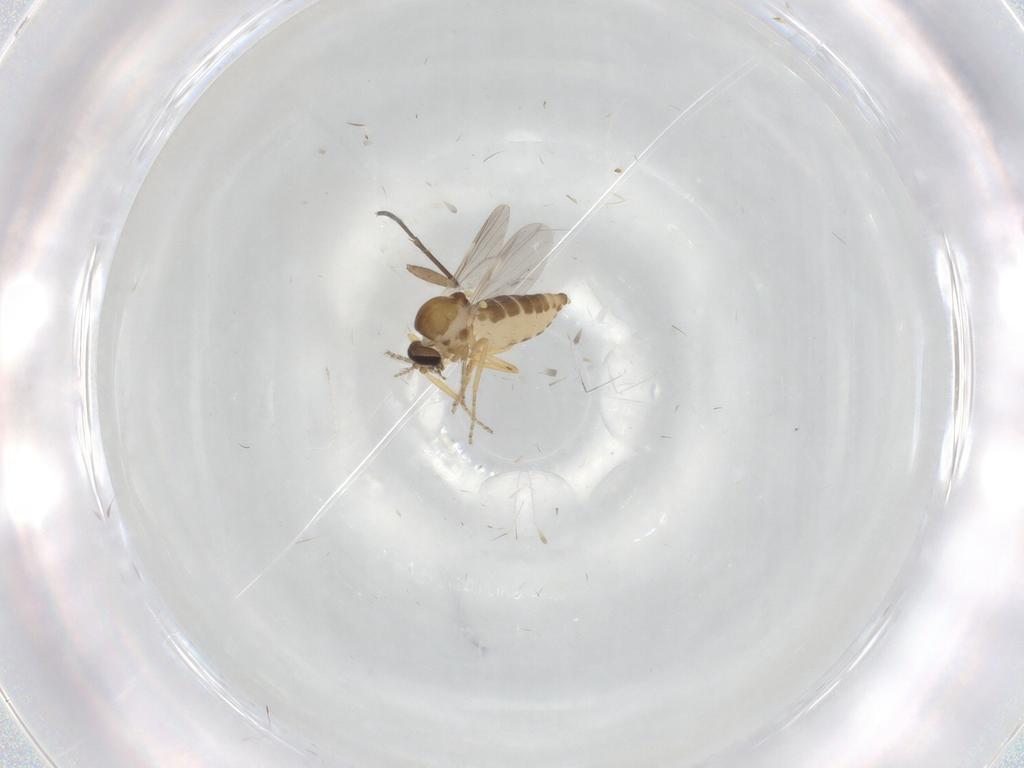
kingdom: Animalia
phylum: Arthropoda
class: Insecta
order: Diptera
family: Ceratopogonidae
